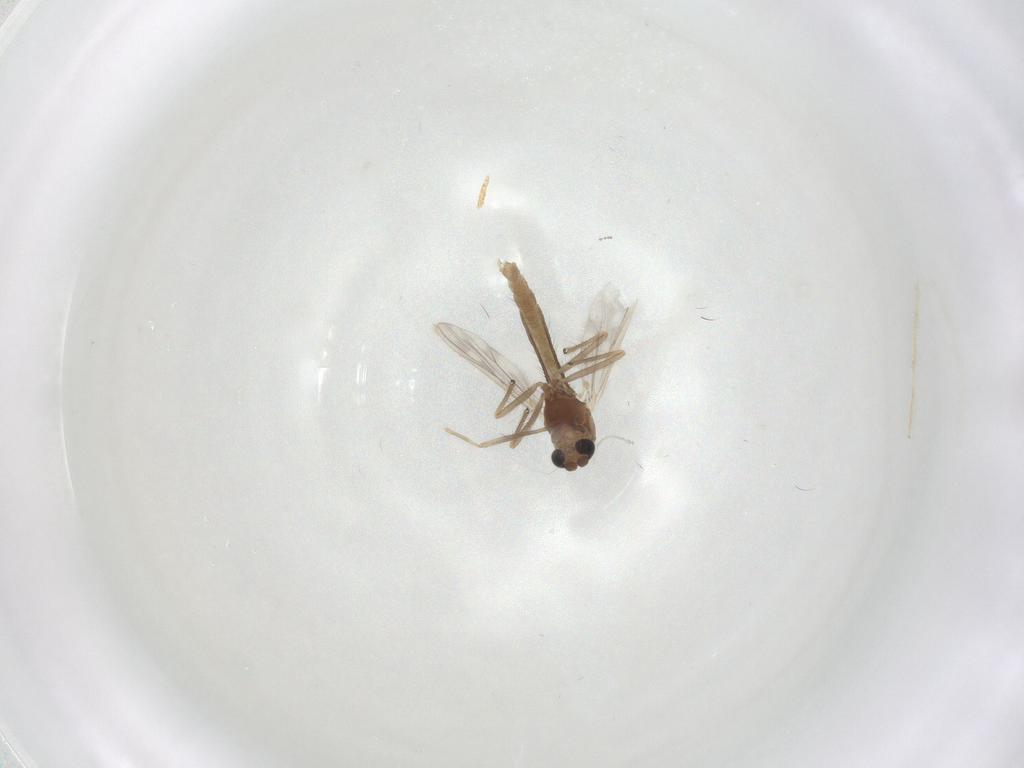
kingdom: Animalia
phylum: Arthropoda
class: Insecta
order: Diptera
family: Chironomidae
